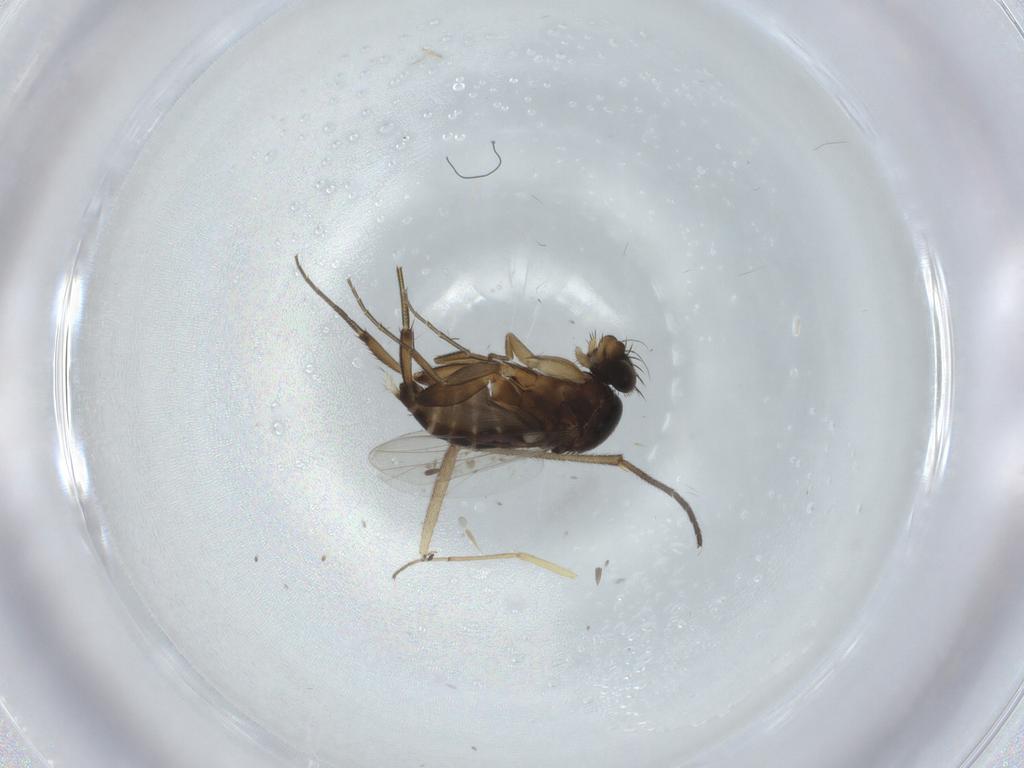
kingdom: Animalia
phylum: Arthropoda
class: Insecta
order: Diptera
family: Phoridae
